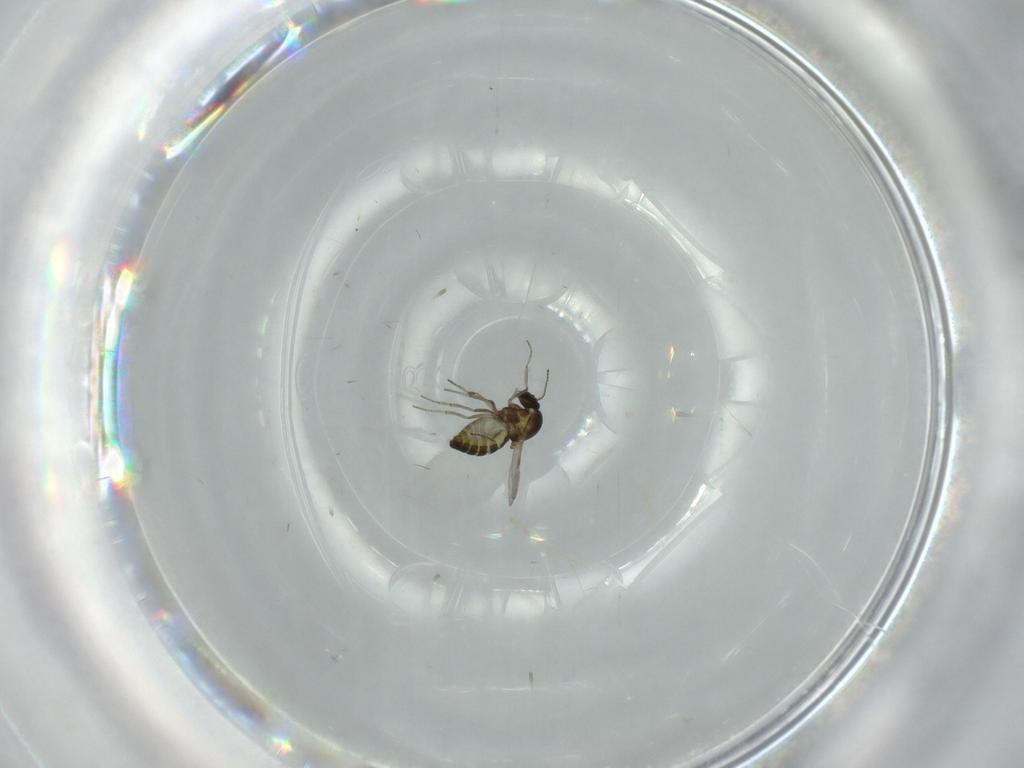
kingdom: Animalia
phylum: Arthropoda
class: Insecta
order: Diptera
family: Ceratopogonidae
